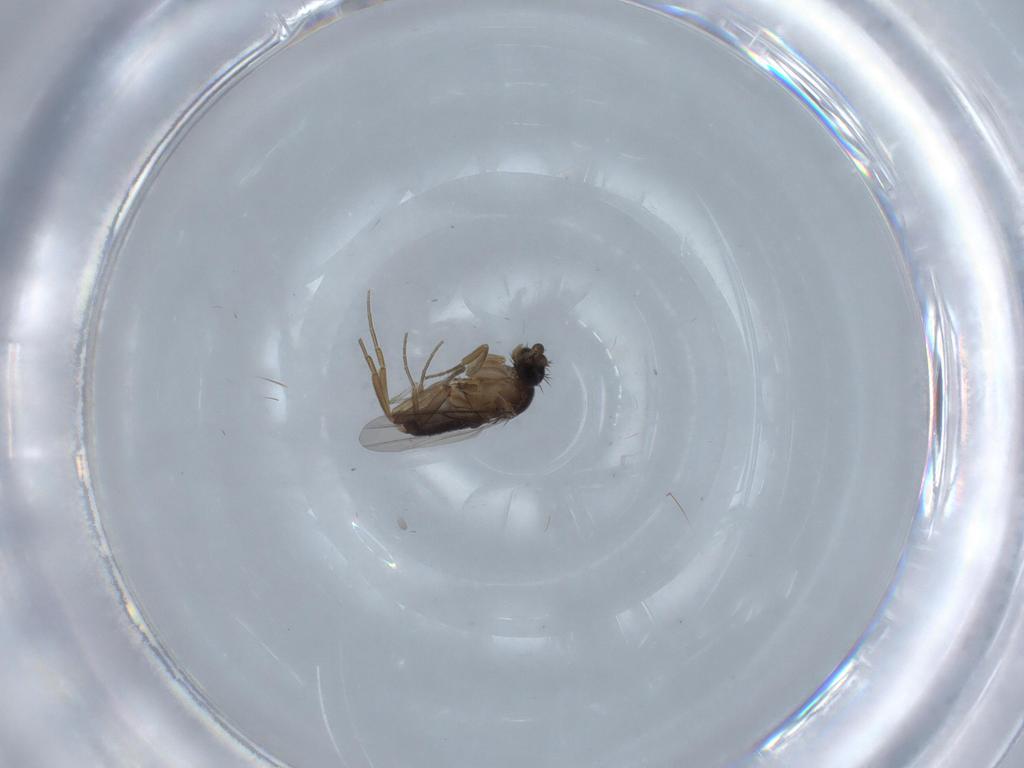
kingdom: Animalia
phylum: Arthropoda
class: Insecta
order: Diptera
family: Phoridae
